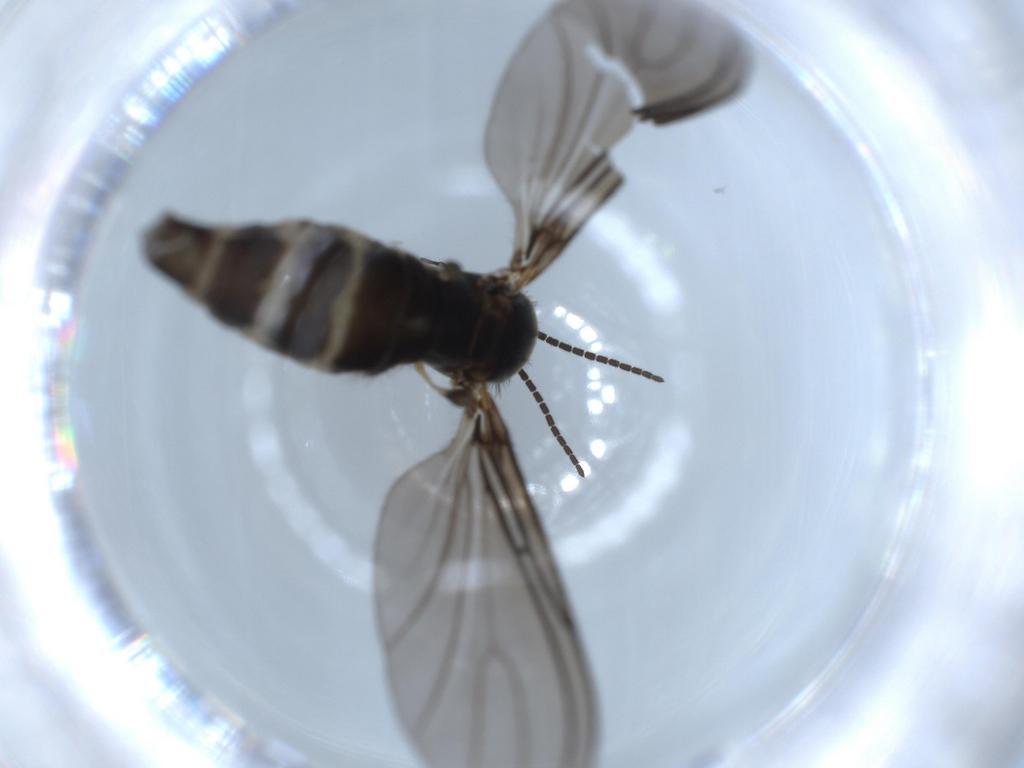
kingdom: Animalia
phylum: Arthropoda
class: Insecta
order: Diptera
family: Sciaridae
